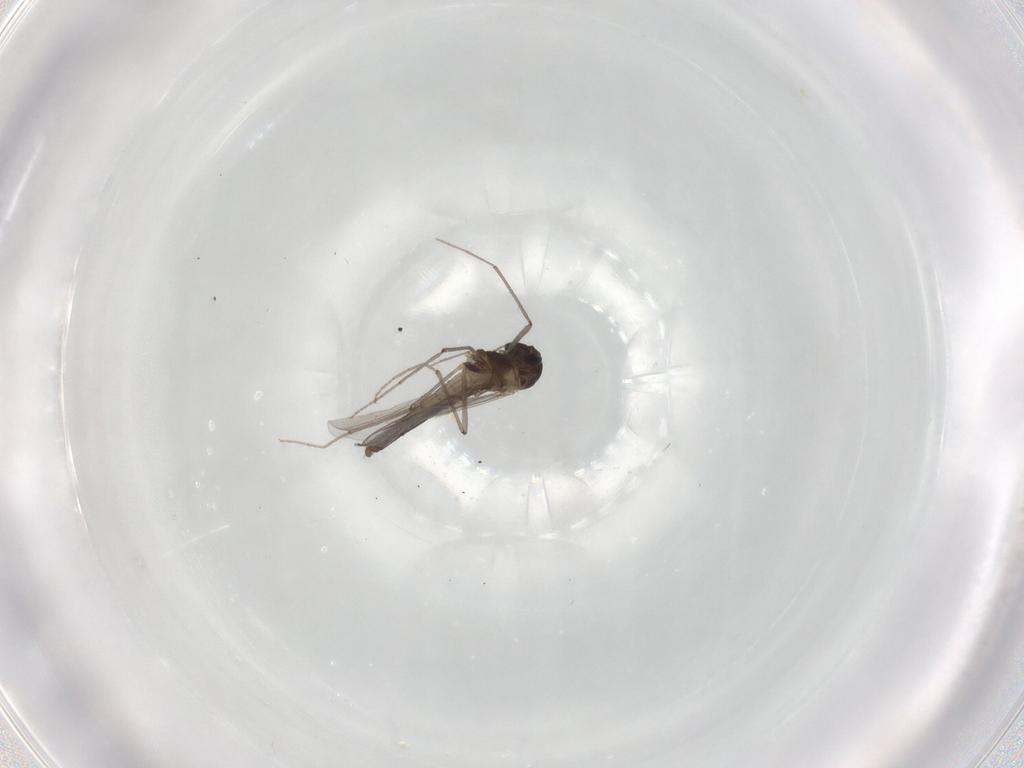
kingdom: Animalia
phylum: Arthropoda
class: Insecta
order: Diptera
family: Chironomidae
